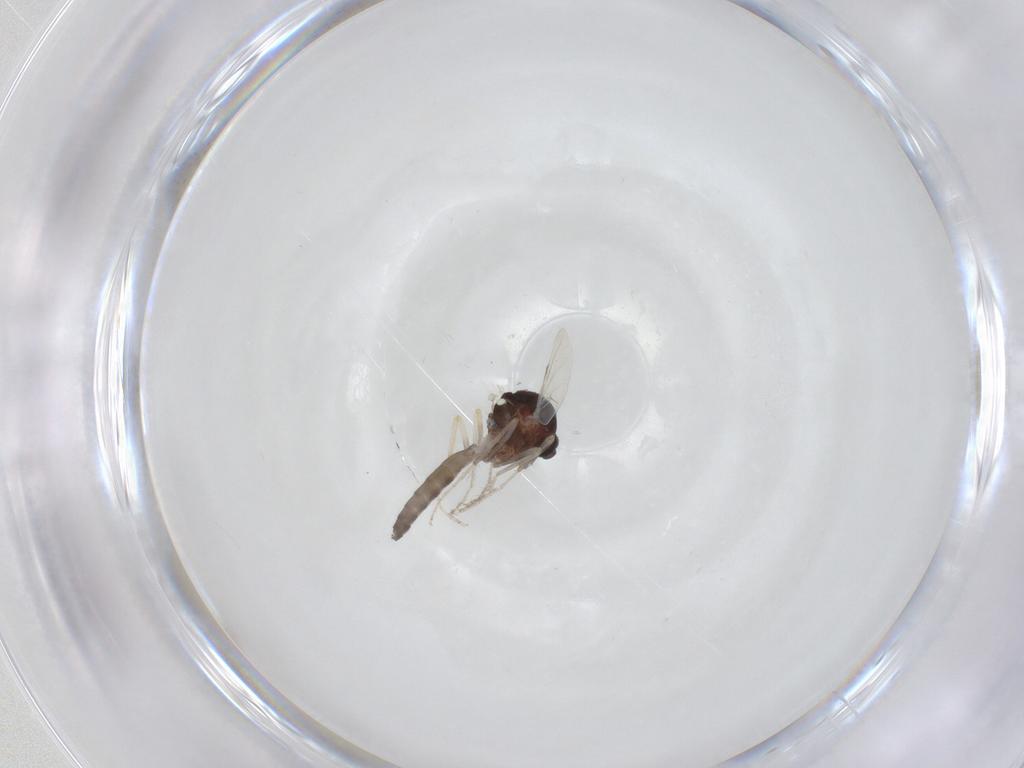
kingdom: Animalia
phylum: Arthropoda
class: Insecta
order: Diptera
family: Ceratopogonidae
